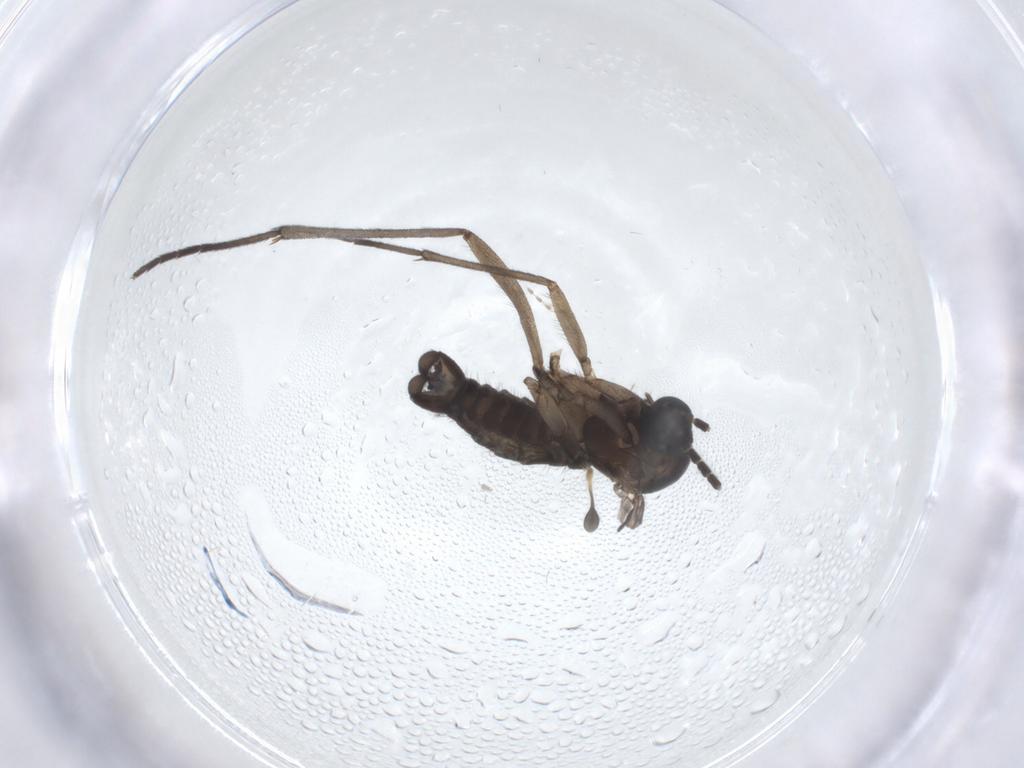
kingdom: Animalia
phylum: Arthropoda
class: Insecta
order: Diptera
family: Sciaridae
